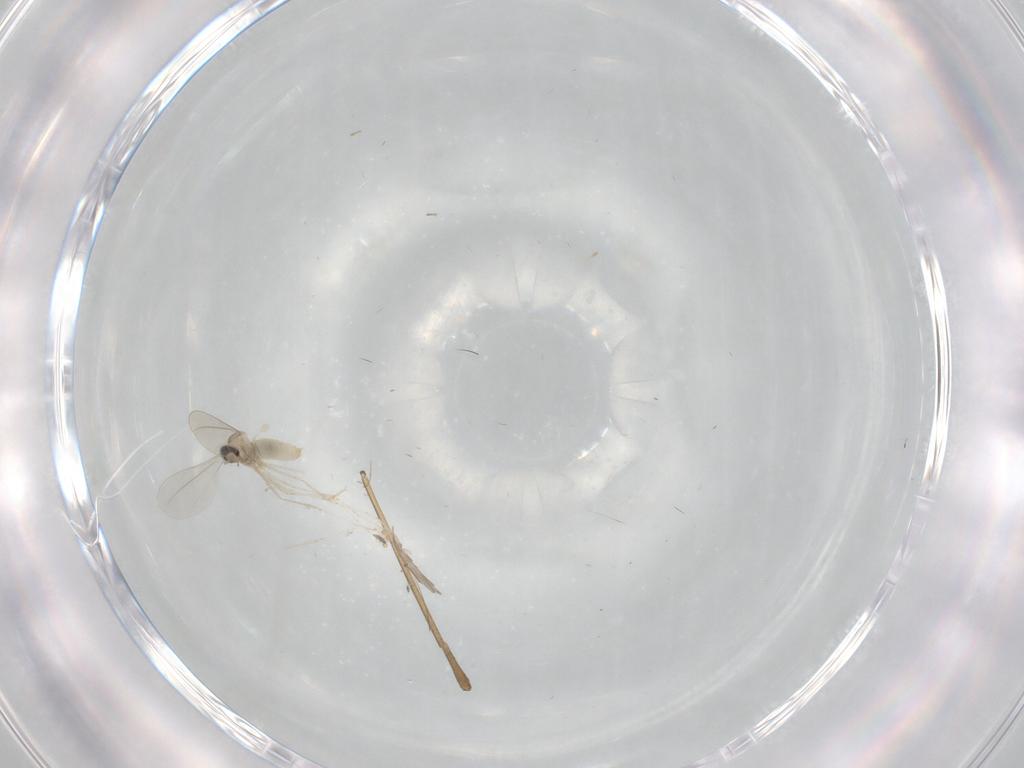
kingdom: Animalia
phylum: Arthropoda
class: Insecta
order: Diptera
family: Cecidomyiidae
